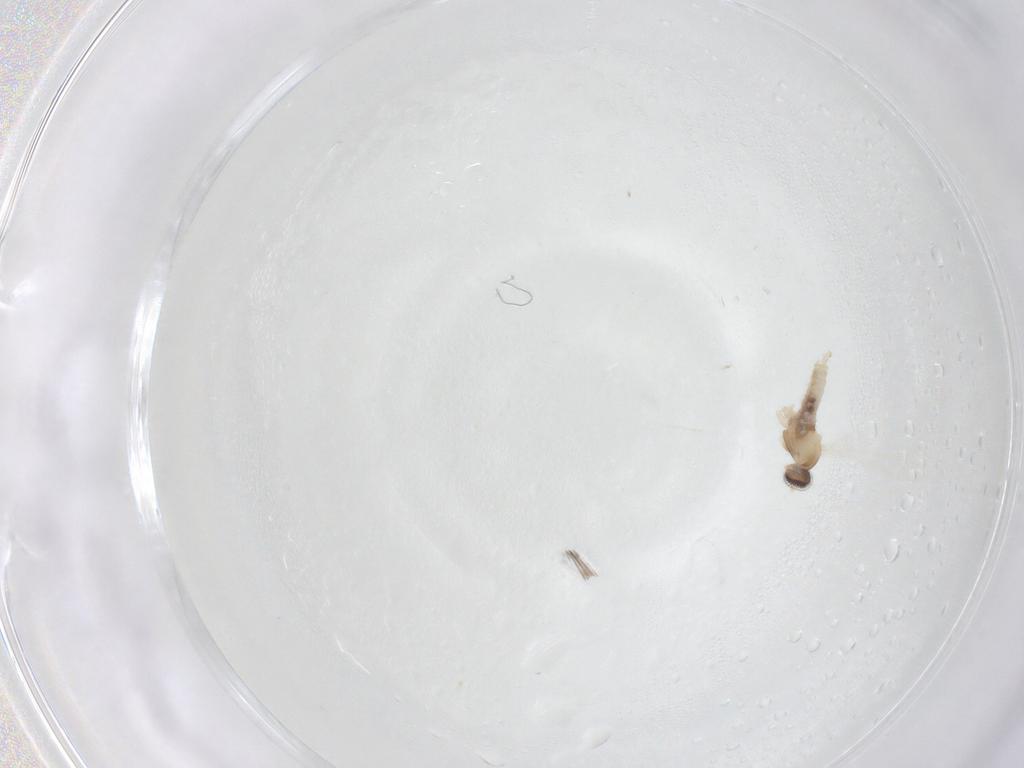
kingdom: Animalia
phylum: Arthropoda
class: Insecta
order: Diptera
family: Cecidomyiidae
